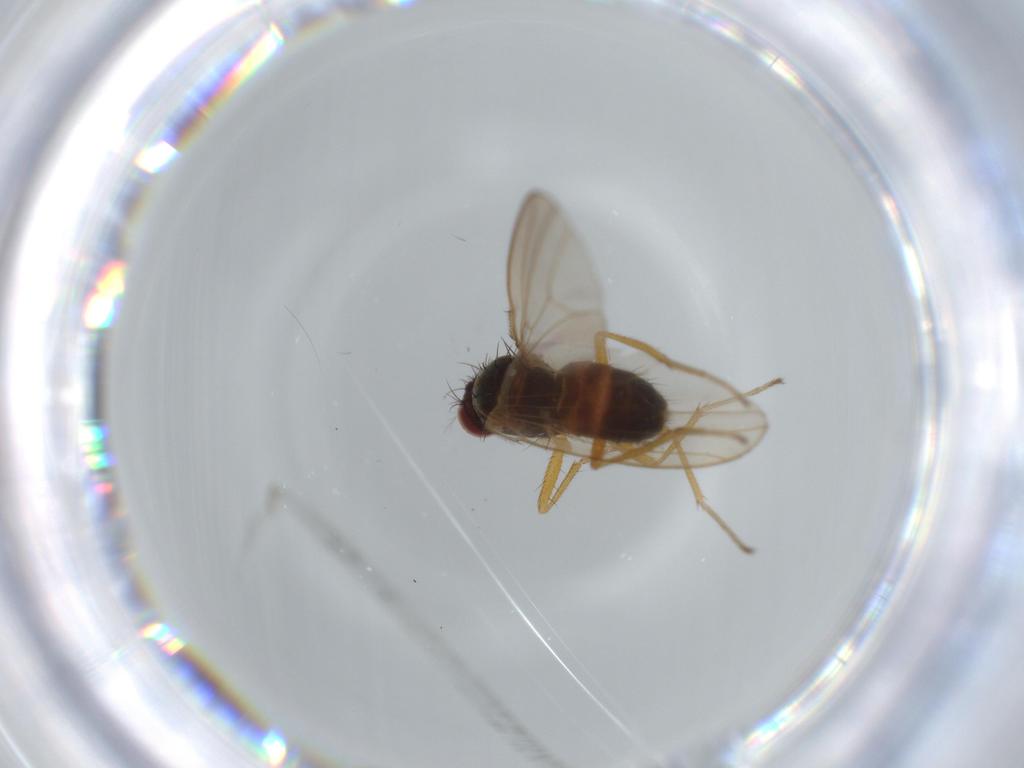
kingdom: Animalia
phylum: Arthropoda
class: Insecta
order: Diptera
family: Drosophilidae
